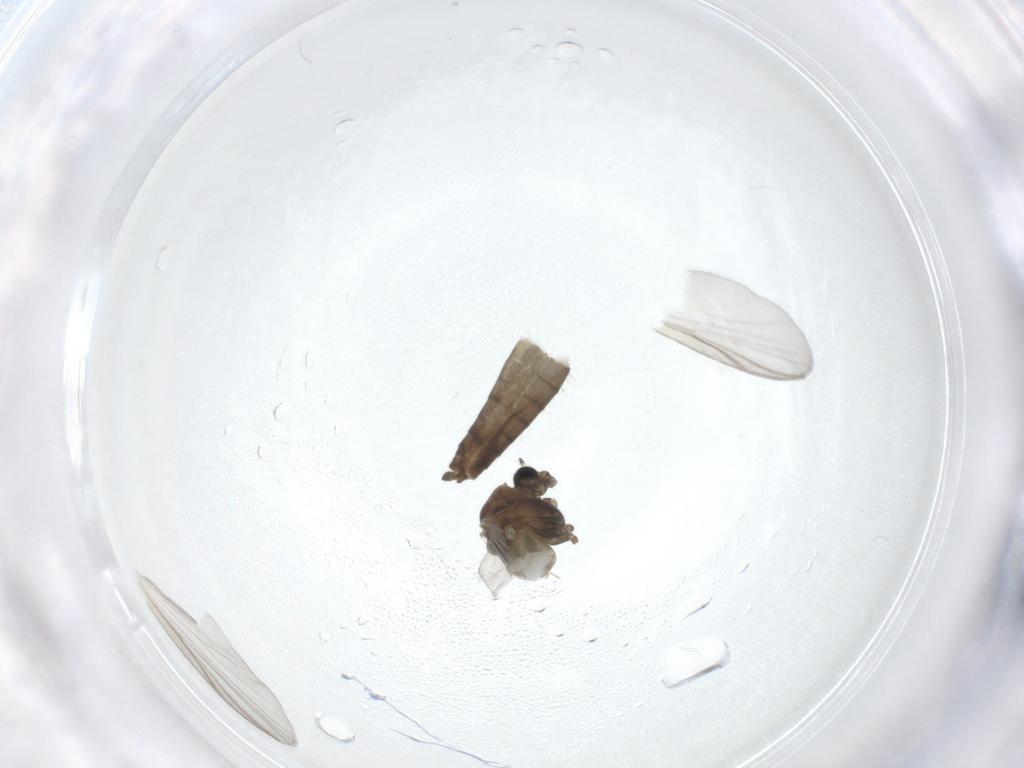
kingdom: Animalia
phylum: Arthropoda
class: Insecta
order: Diptera
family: Chironomidae
